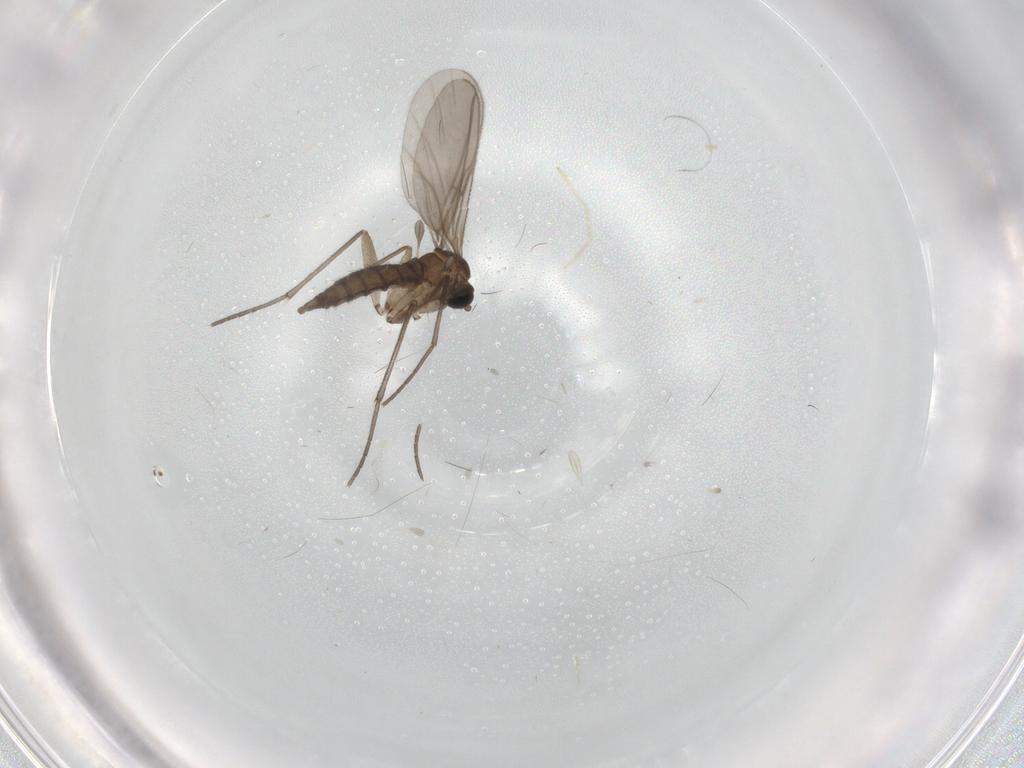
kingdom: Animalia
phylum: Arthropoda
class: Insecta
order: Diptera
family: Sciaridae
